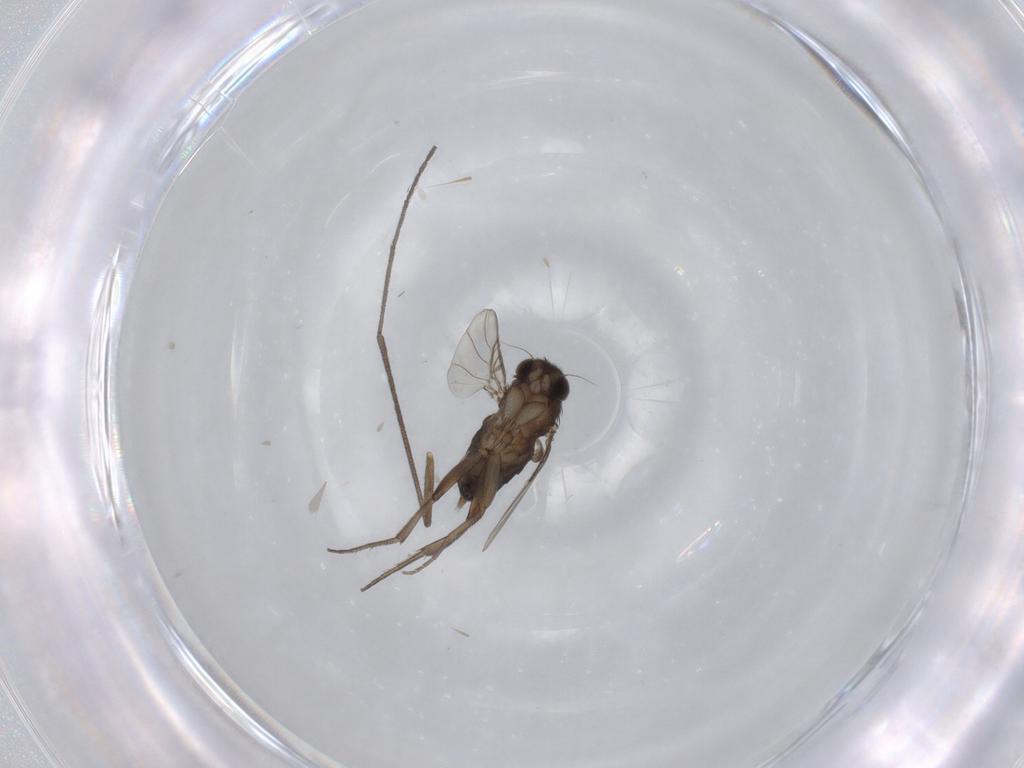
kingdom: Animalia
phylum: Arthropoda
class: Insecta
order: Diptera
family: Phoridae
